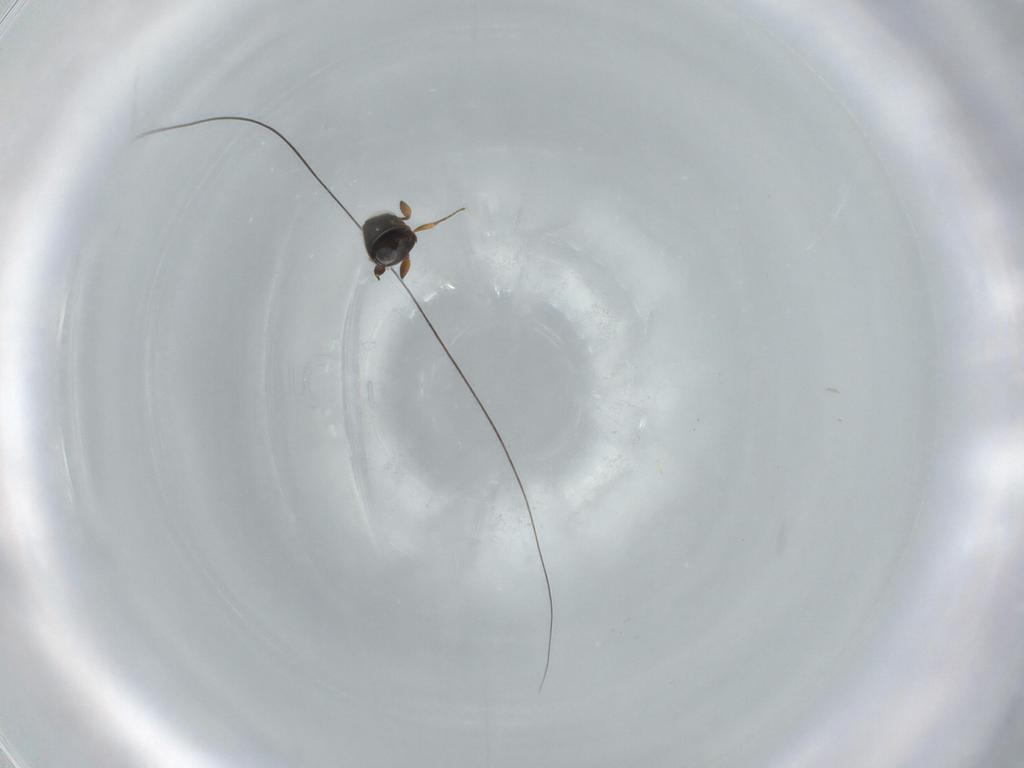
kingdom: Animalia
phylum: Arthropoda
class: Insecta
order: Hymenoptera
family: Scelionidae
